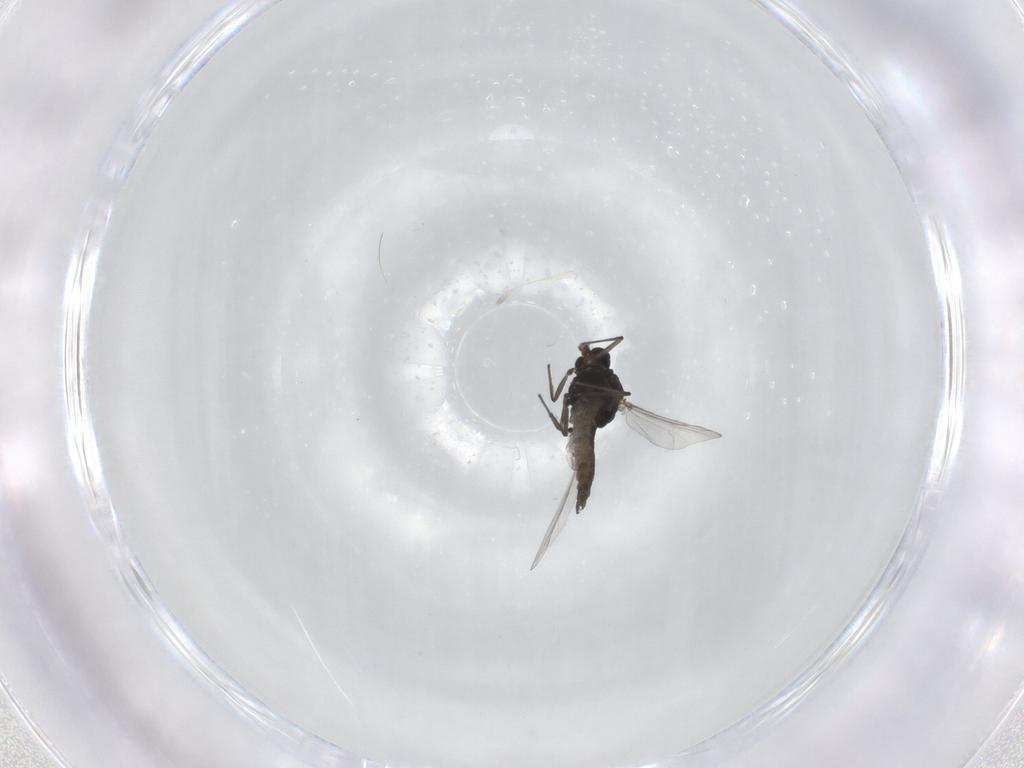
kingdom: Animalia
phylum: Arthropoda
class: Insecta
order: Diptera
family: Chironomidae
